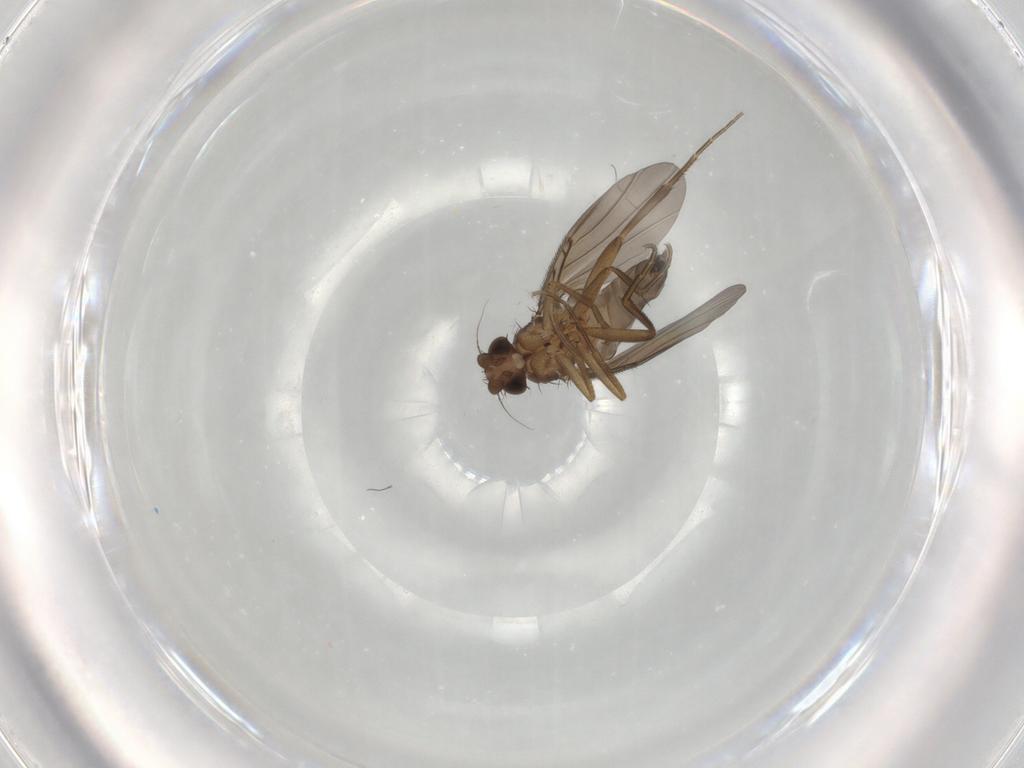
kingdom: Animalia
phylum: Arthropoda
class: Insecta
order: Diptera
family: Phoridae
